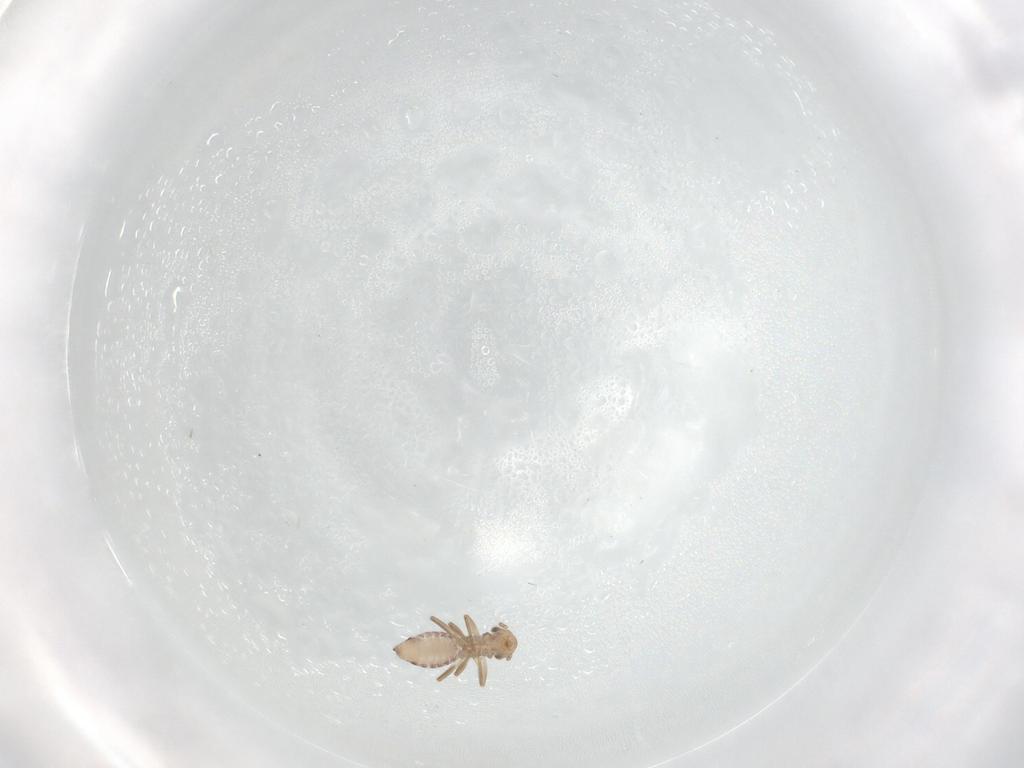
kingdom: Animalia
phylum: Arthropoda
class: Insecta
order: Psocodea
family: Lepidopsocidae
